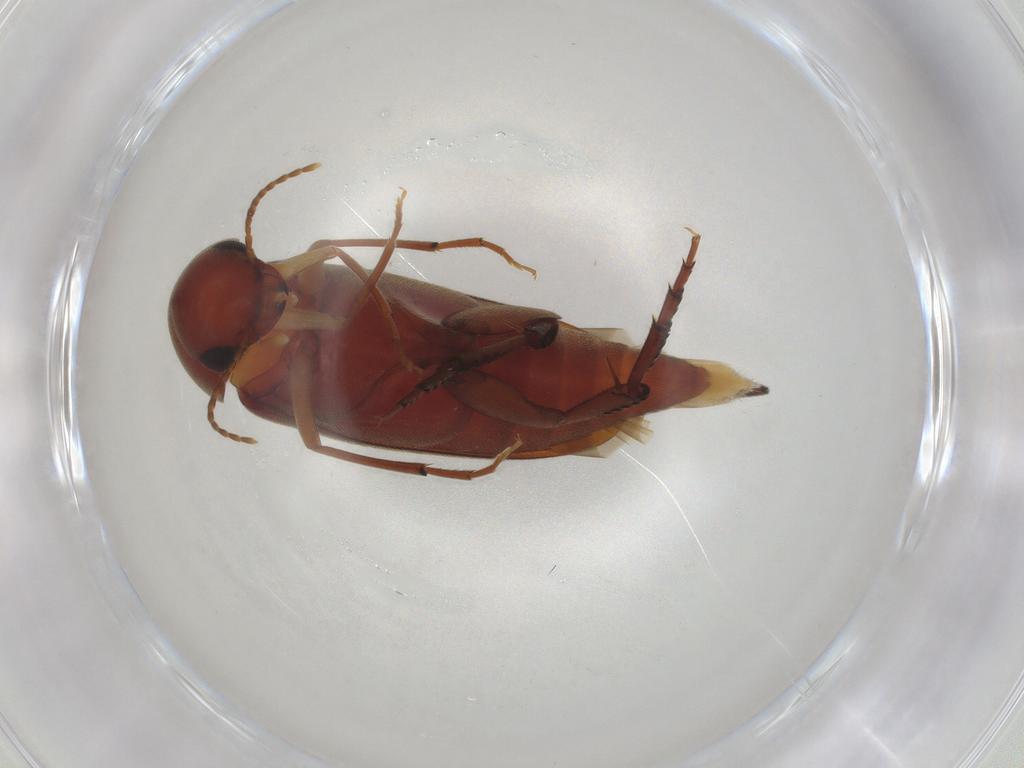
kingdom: Animalia
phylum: Arthropoda
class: Insecta
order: Coleoptera
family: Mordellidae
